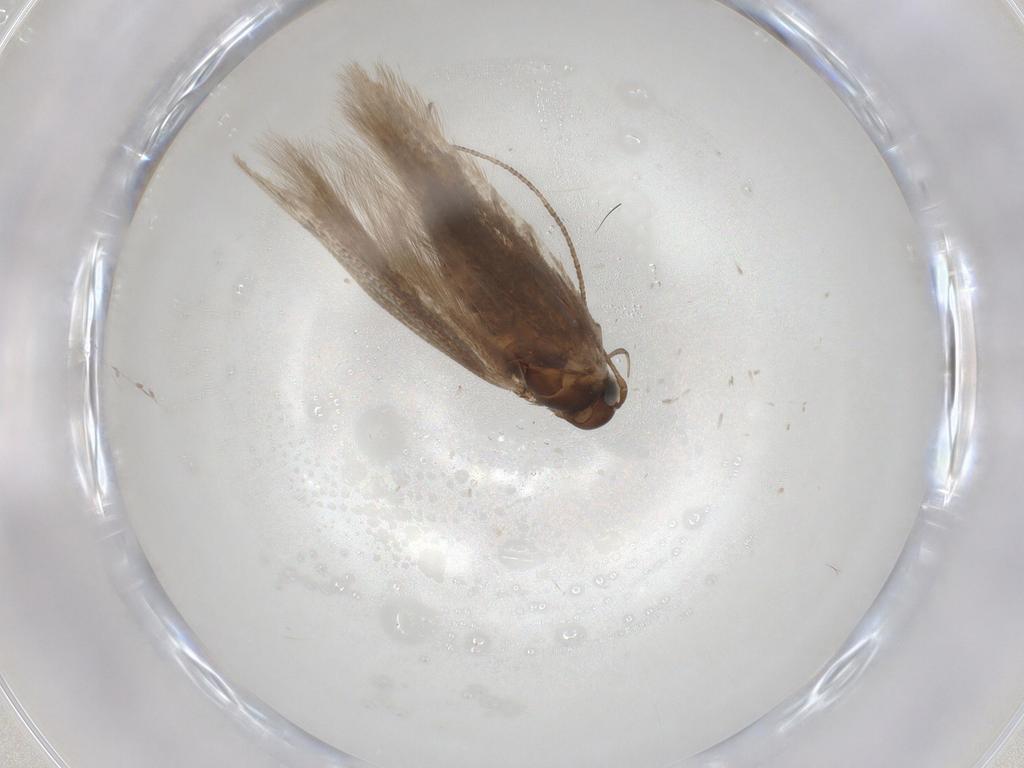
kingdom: Animalia
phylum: Arthropoda
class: Insecta
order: Lepidoptera
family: Gelechiidae
